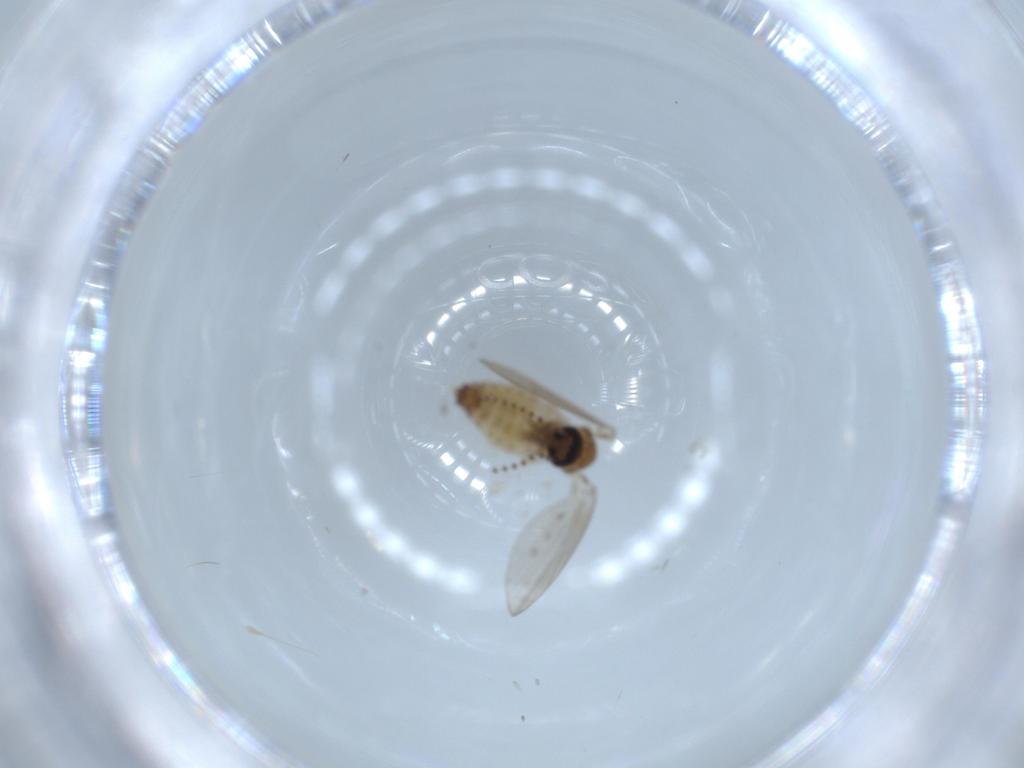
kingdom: Animalia
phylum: Arthropoda
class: Insecta
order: Diptera
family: Psychodidae
